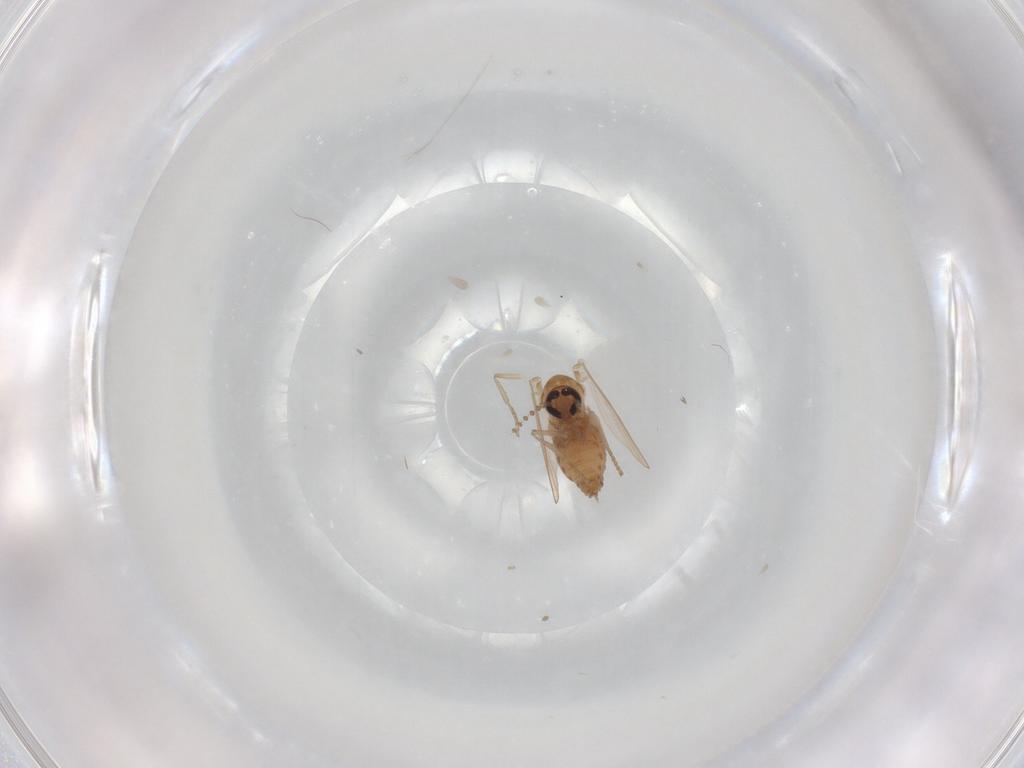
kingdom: Animalia
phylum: Arthropoda
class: Insecta
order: Diptera
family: Psychodidae
